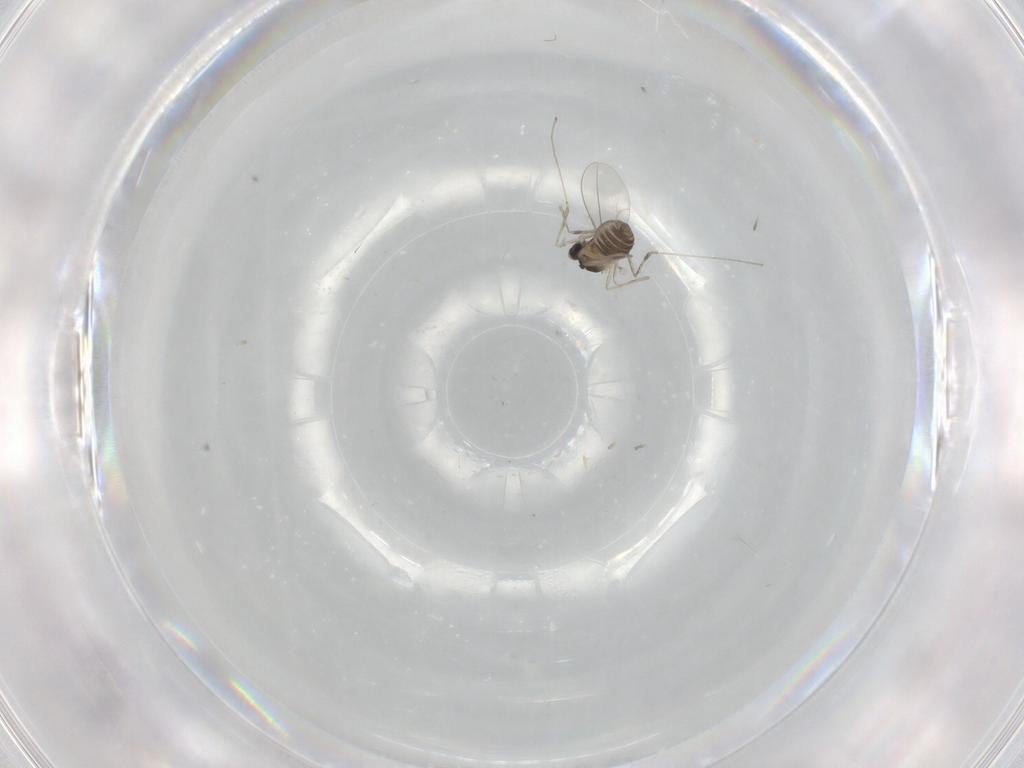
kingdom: Animalia
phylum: Arthropoda
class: Insecta
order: Diptera
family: Cecidomyiidae
